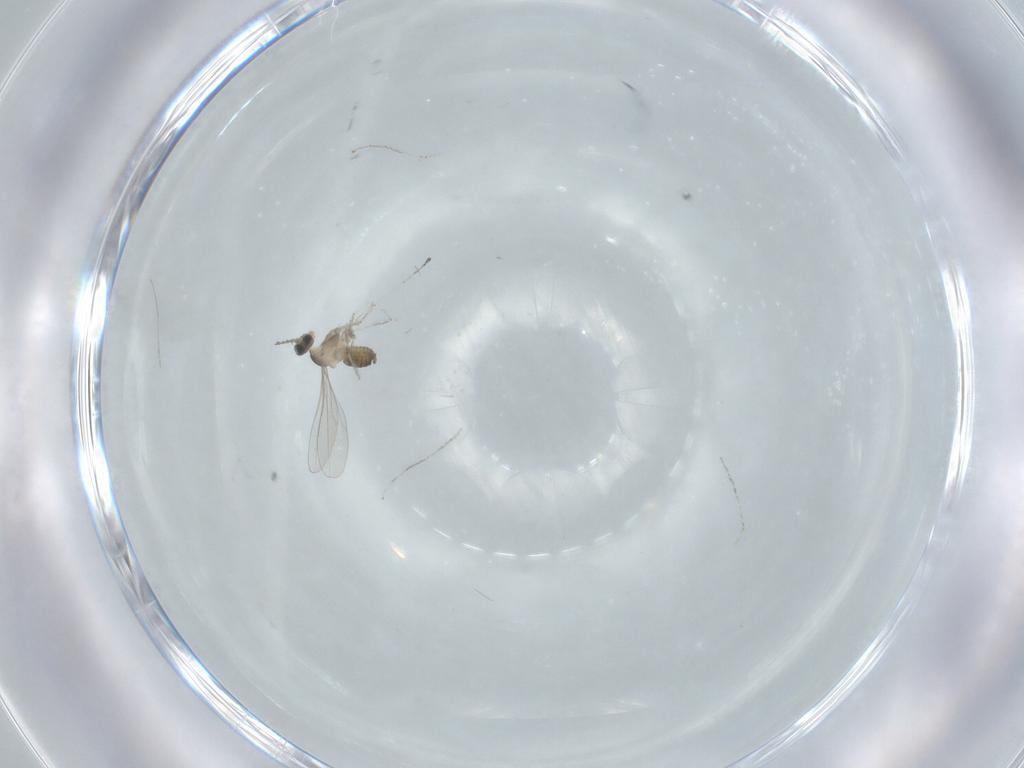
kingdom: Animalia
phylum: Arthropoda
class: Insecta
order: Diptera
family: Cecidomyiidae
